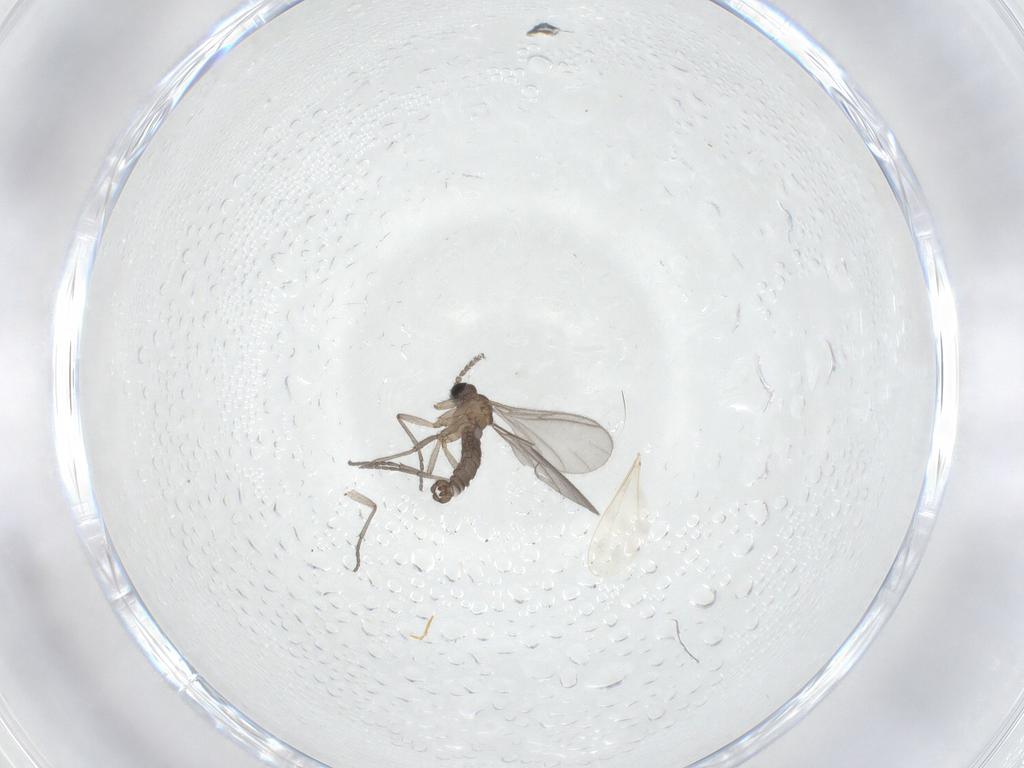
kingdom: Animalia
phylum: Arthropoda
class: Insecta
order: Diptera
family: Sciaridae
